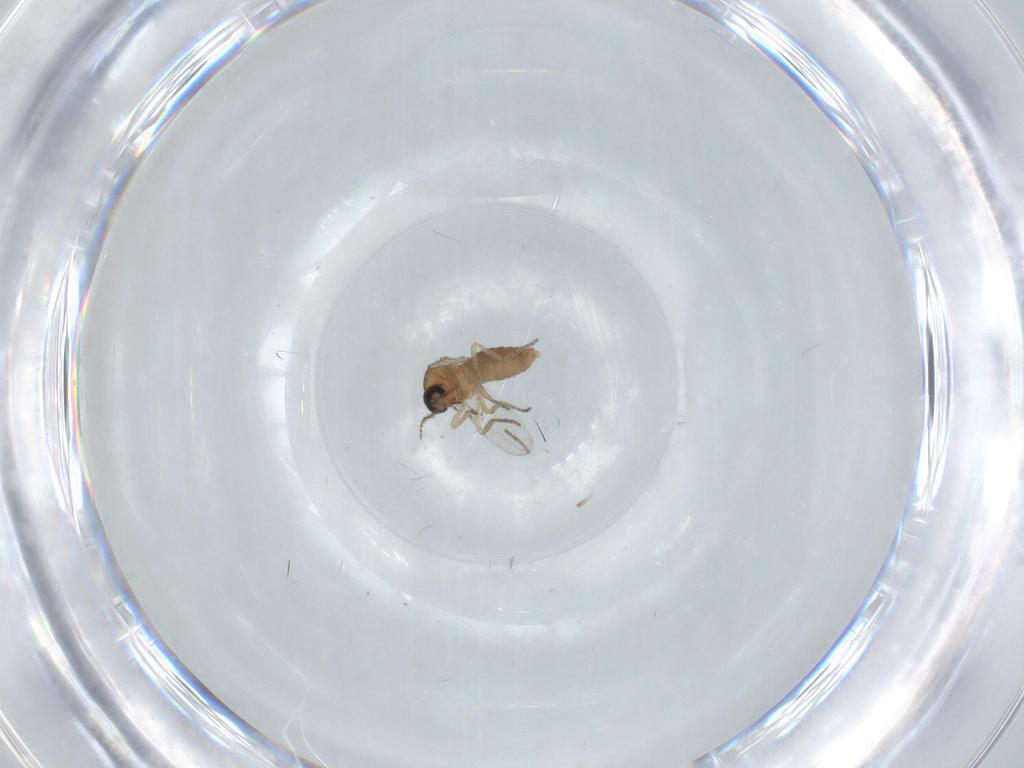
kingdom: Animalia
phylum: Arthropoda
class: Insecta
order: Diptera
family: Ceratopogonidae
